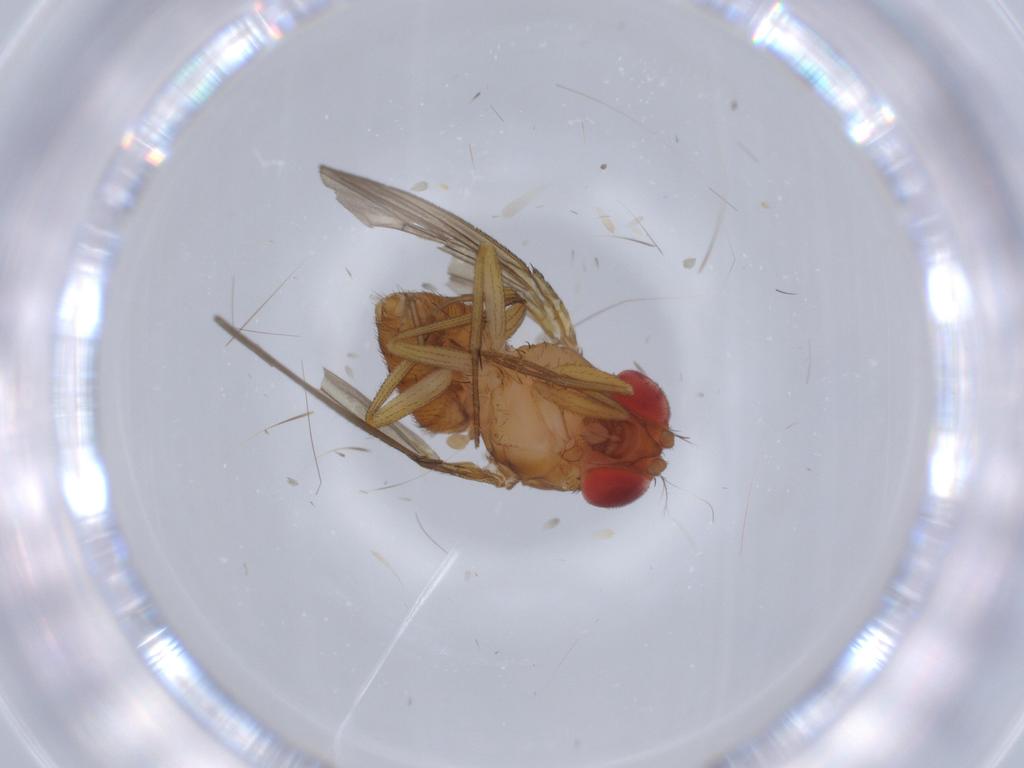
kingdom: Animalia
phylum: Arthropoda
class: Insecta
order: Diptera
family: Drosophilidae
